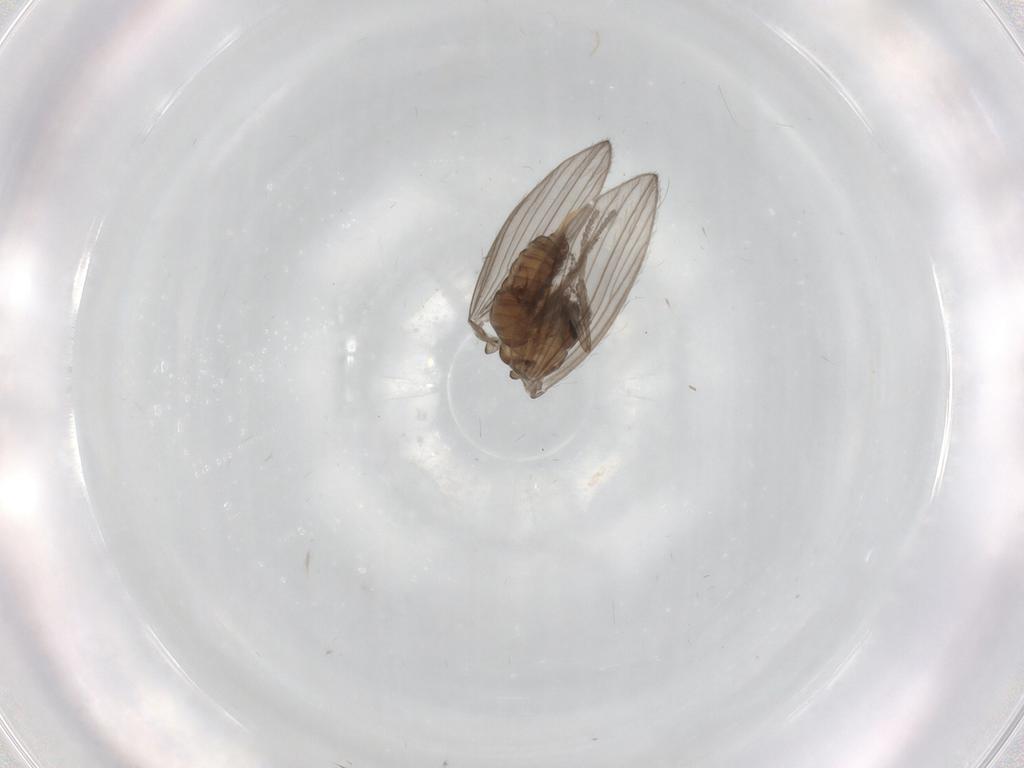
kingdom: Animalia
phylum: Arthropoda
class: Insecta
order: Diptera
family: Psychodidae
